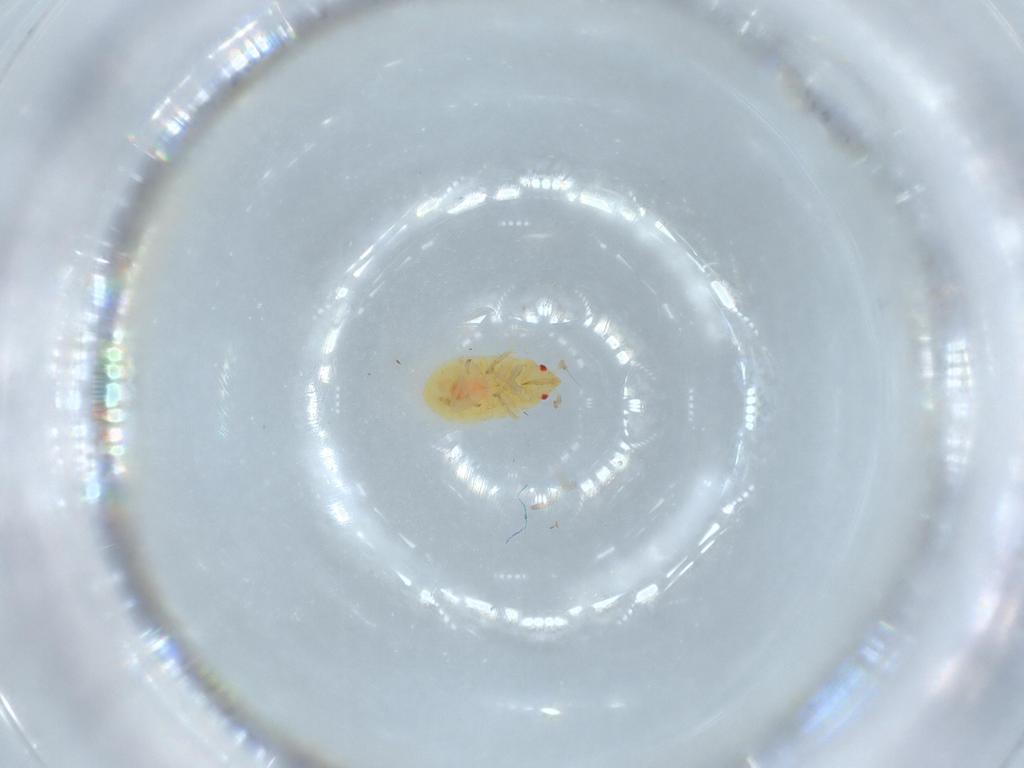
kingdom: Animalia
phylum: Arthropoda
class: Insecta
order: Hemiptera
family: Anthocoridae
